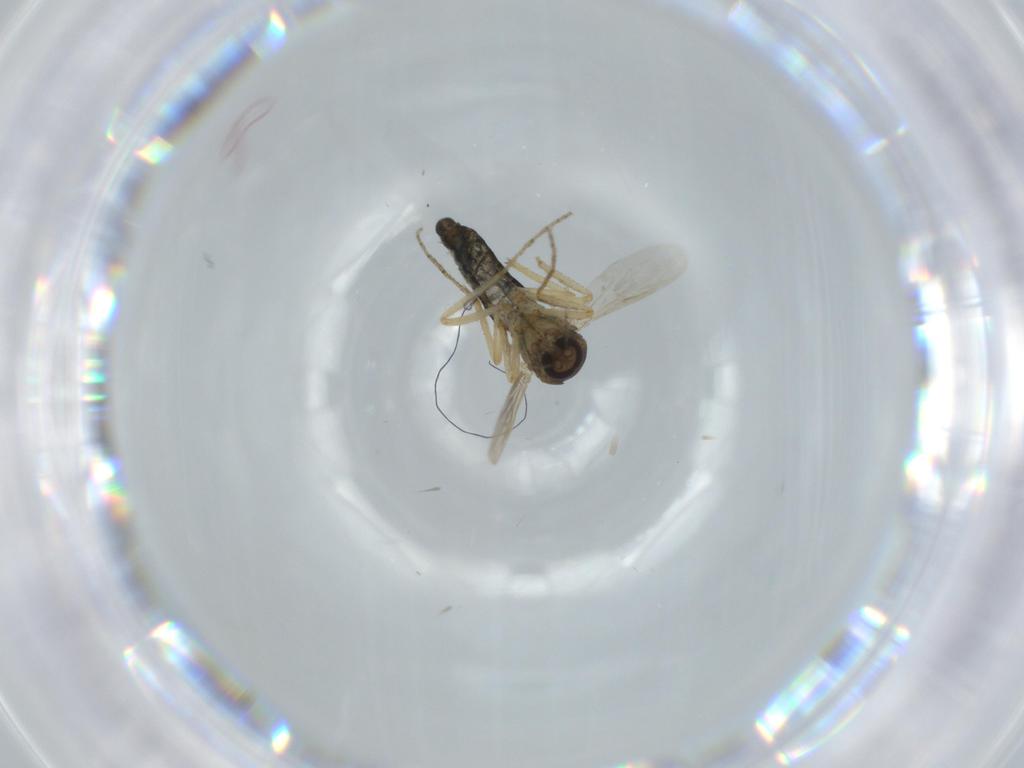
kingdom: Animalia
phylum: Arthropoda
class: Insecta
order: Diptera
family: Ceratopogonidae
